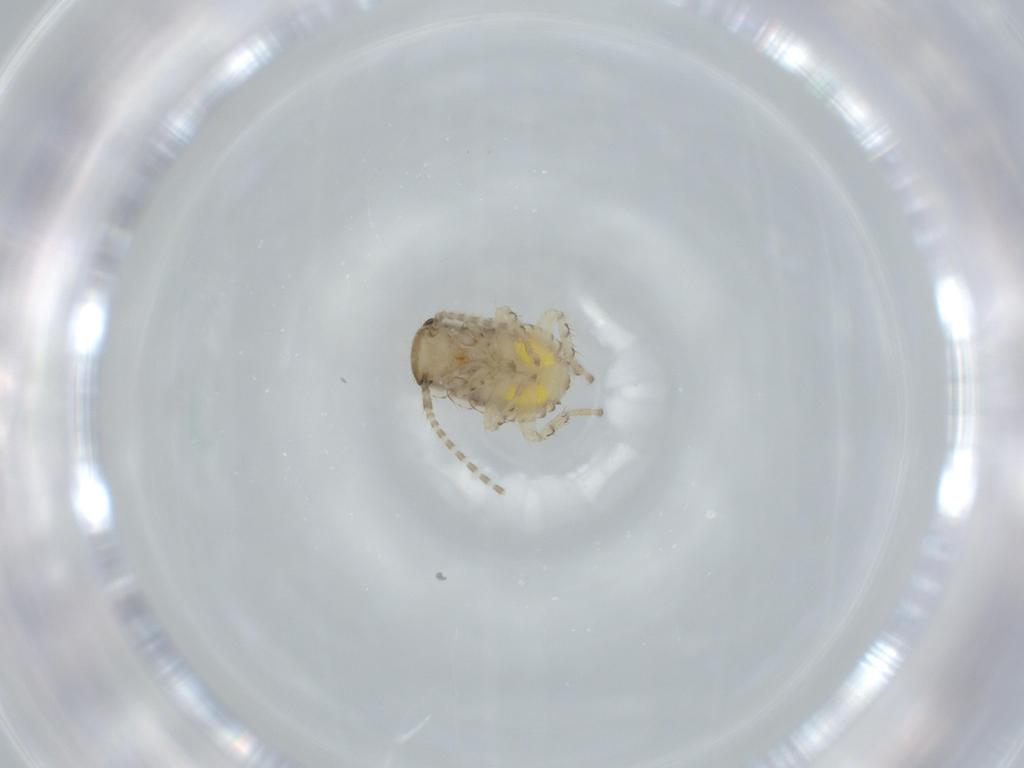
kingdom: Animalia
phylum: Arthropoda
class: Insecta
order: Blattodea
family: Ectobiidae
